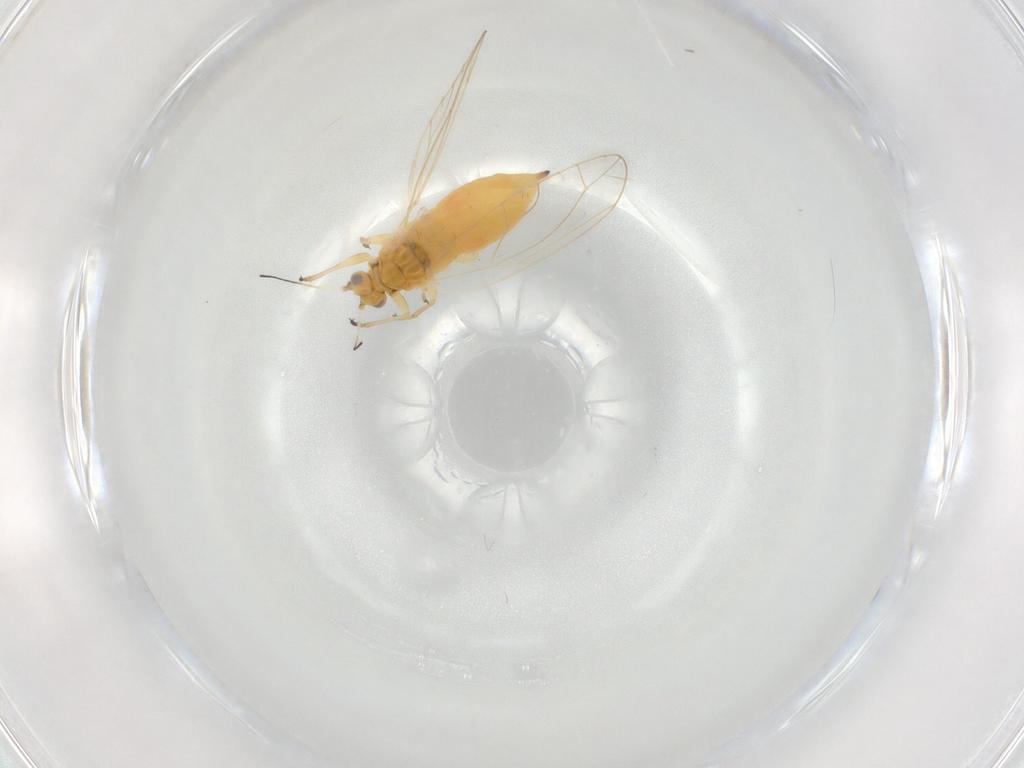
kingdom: Animalia
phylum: Arthropoda
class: Insecta
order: Hemiptera
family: Triozidae
